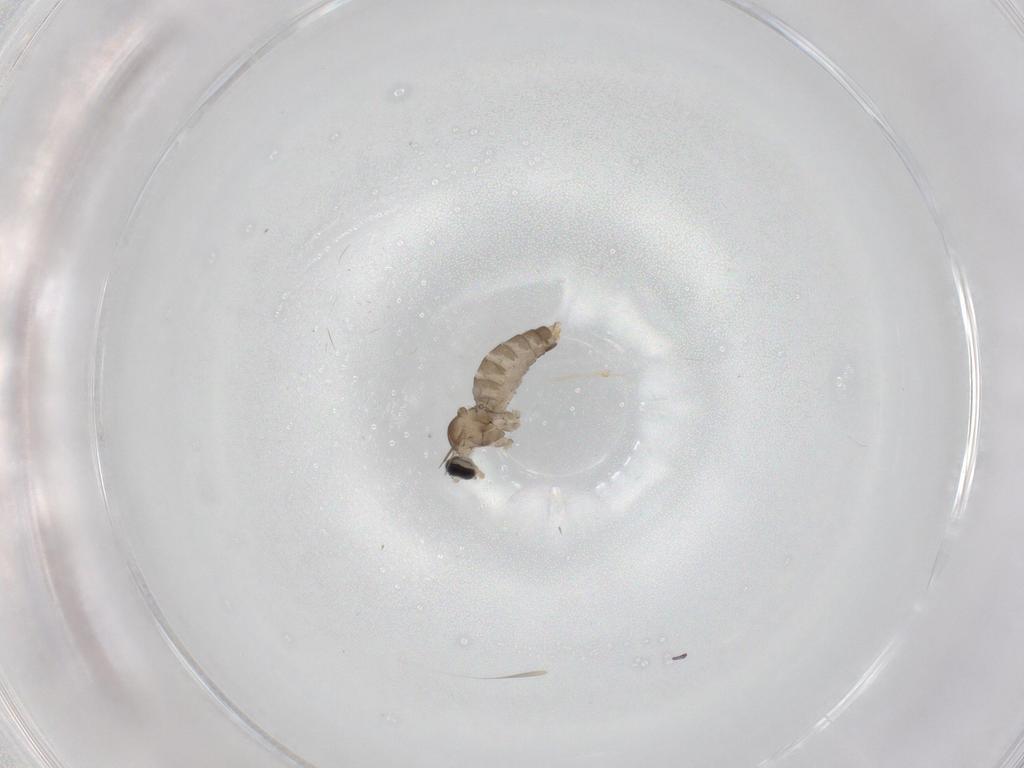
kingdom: Animalia
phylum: Arthropoda
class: Insecta
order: Diptera
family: Cecidomyiidae
